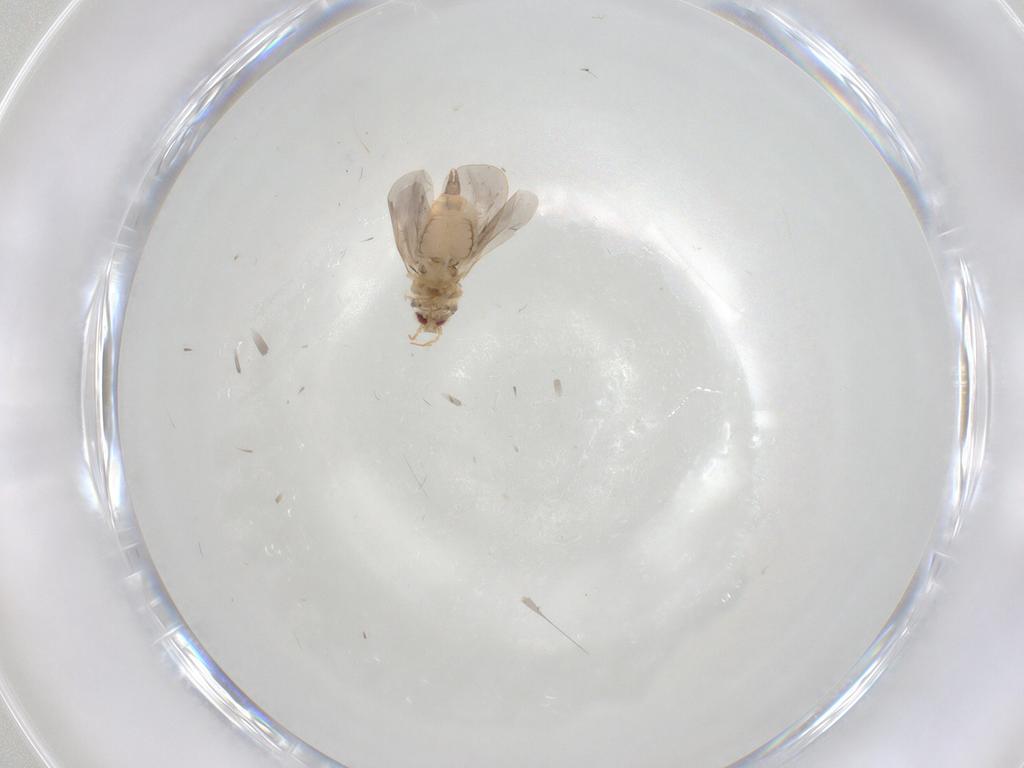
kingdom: Animalia
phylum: Arthropoda
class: Insecta
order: Hemiptera
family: Aleyrodidae
